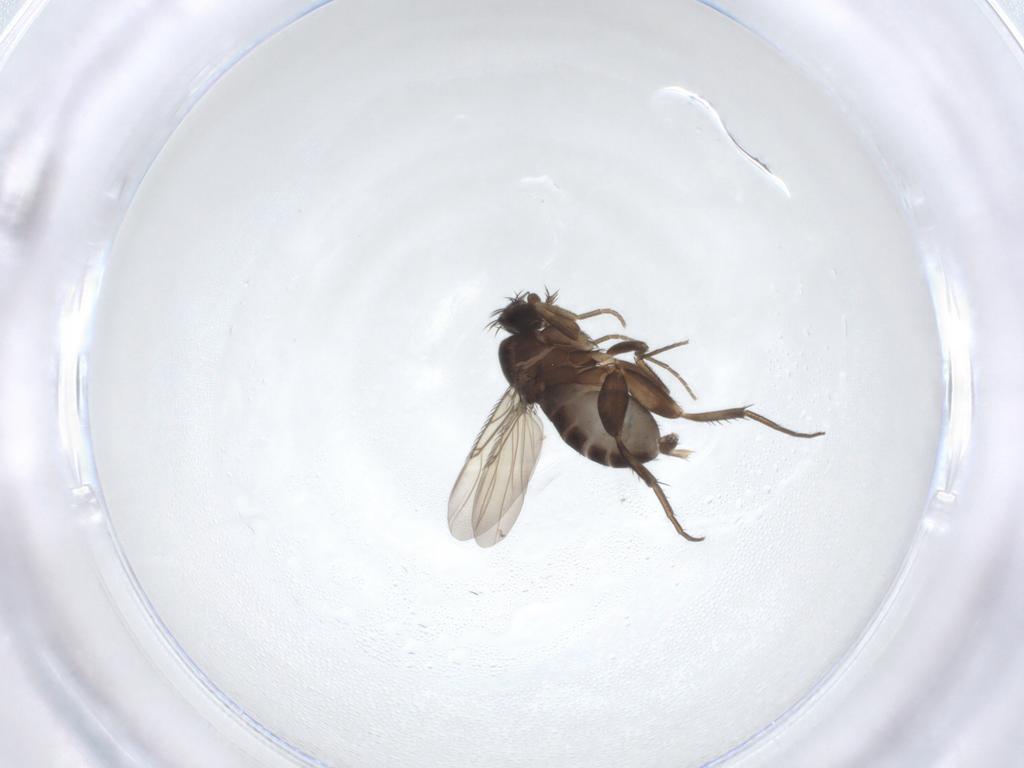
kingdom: Animalia
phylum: Arthropoda
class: Insecta
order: Diptera
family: Phoridae
